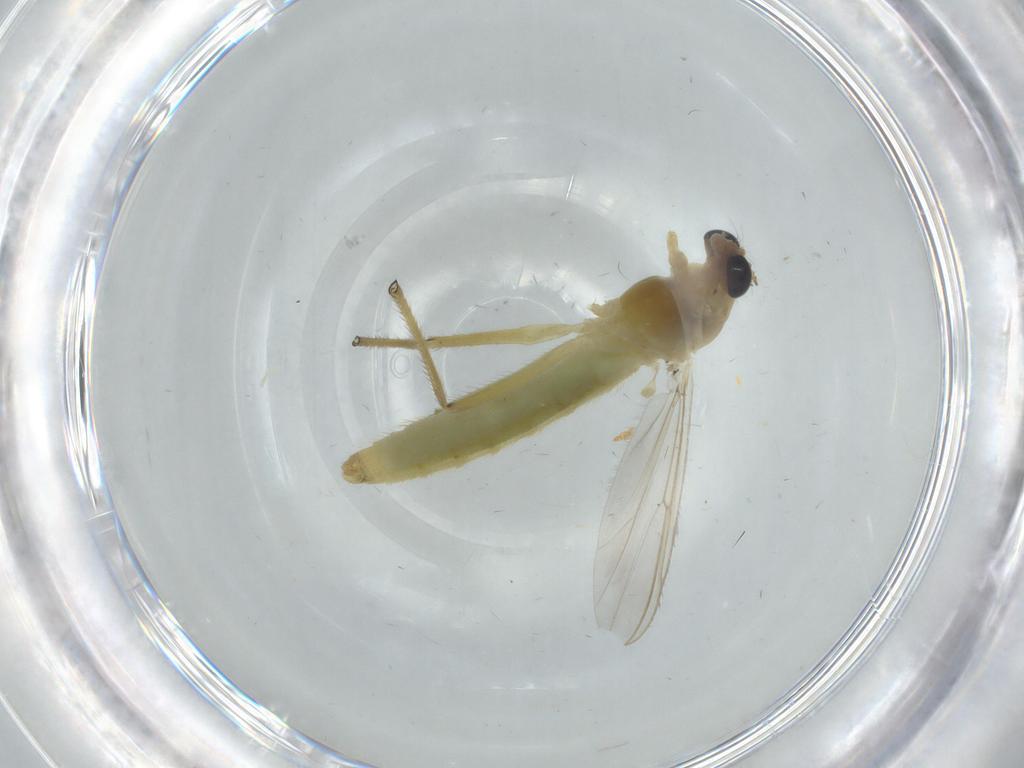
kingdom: Animalia
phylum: Arthropoda
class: Insecta
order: Diptera
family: Chironomidae
